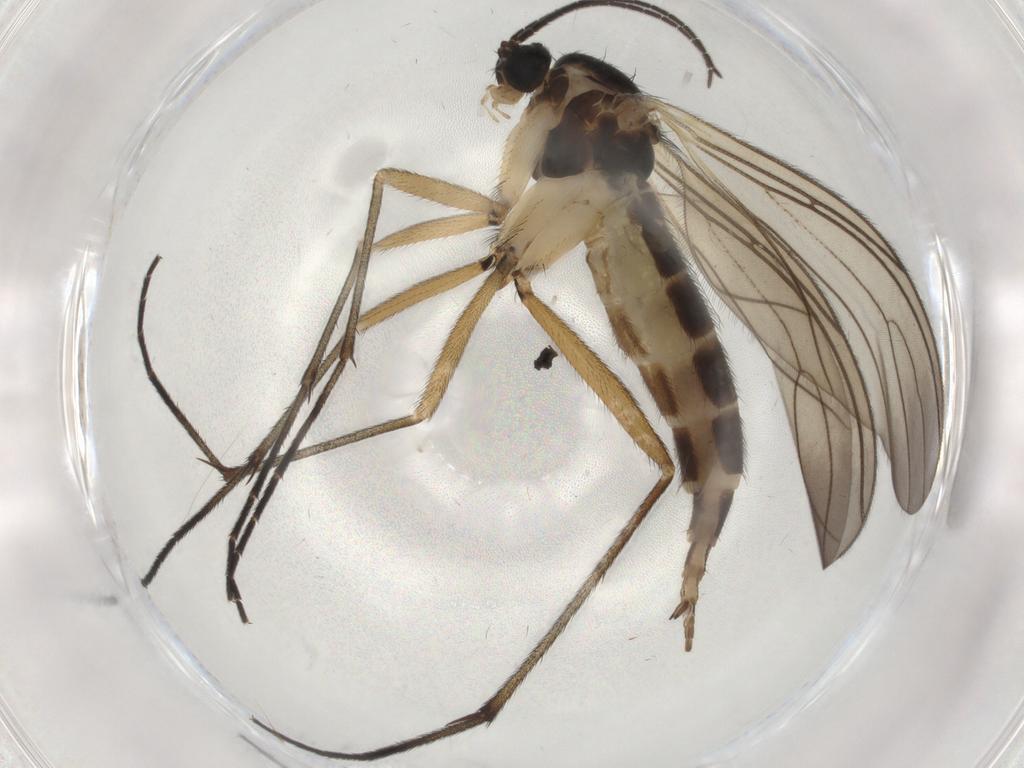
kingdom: Animalia
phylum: Arthropoda
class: Insecta
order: Diptera
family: Sciaridae
